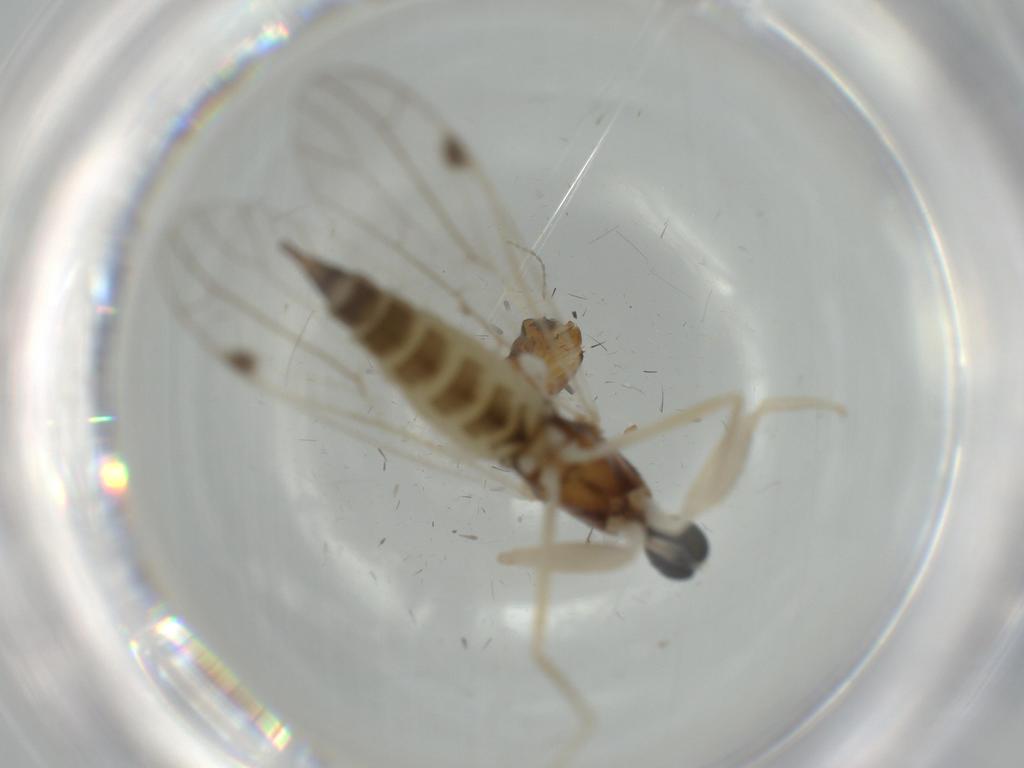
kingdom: Animalia
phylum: Arthropoda
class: Insecta
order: Diptera
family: Empididae
